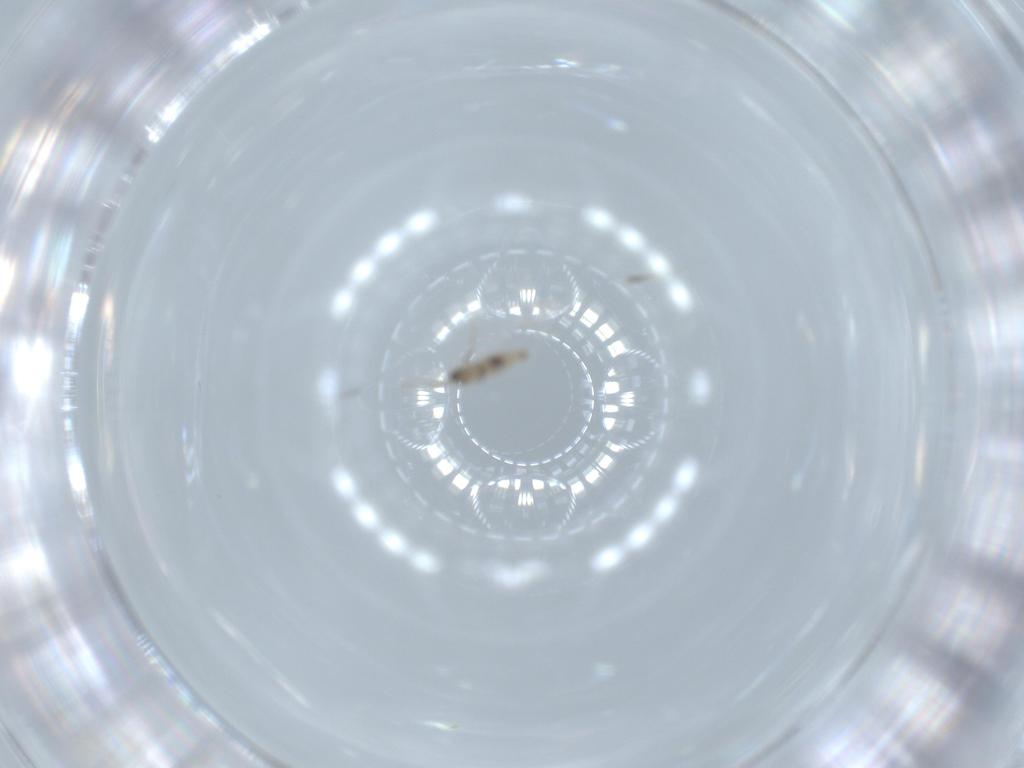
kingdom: Animalia
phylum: Arthropoda
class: Insecta
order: Diptera
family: Cecidomyiidae
